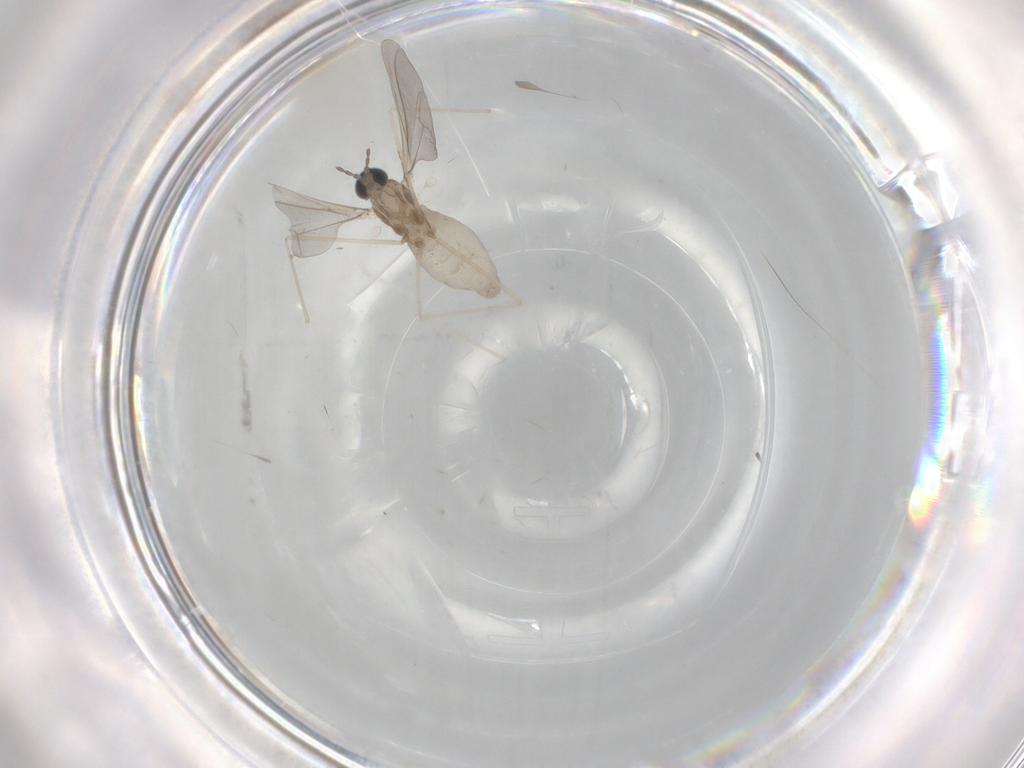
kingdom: Animalia
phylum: Arthropoda
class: Insecta
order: Diptera
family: Cecidomyiidae
